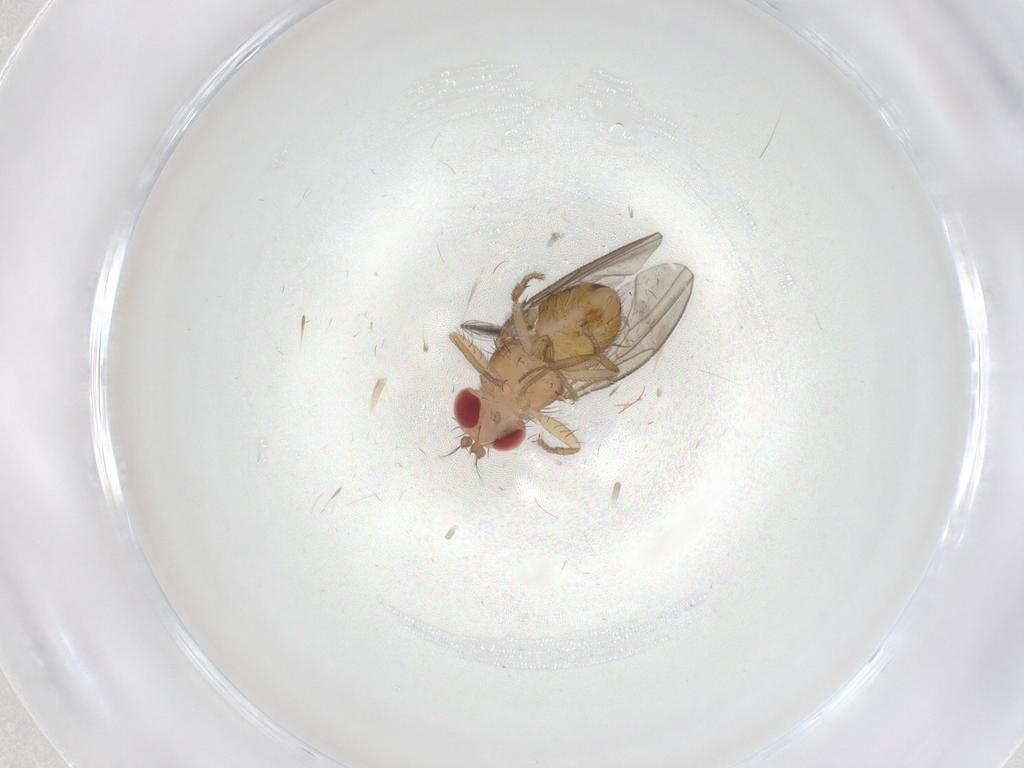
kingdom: Animalia
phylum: Arthropoda
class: Insecta
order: Diptera
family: Drosophilidae
